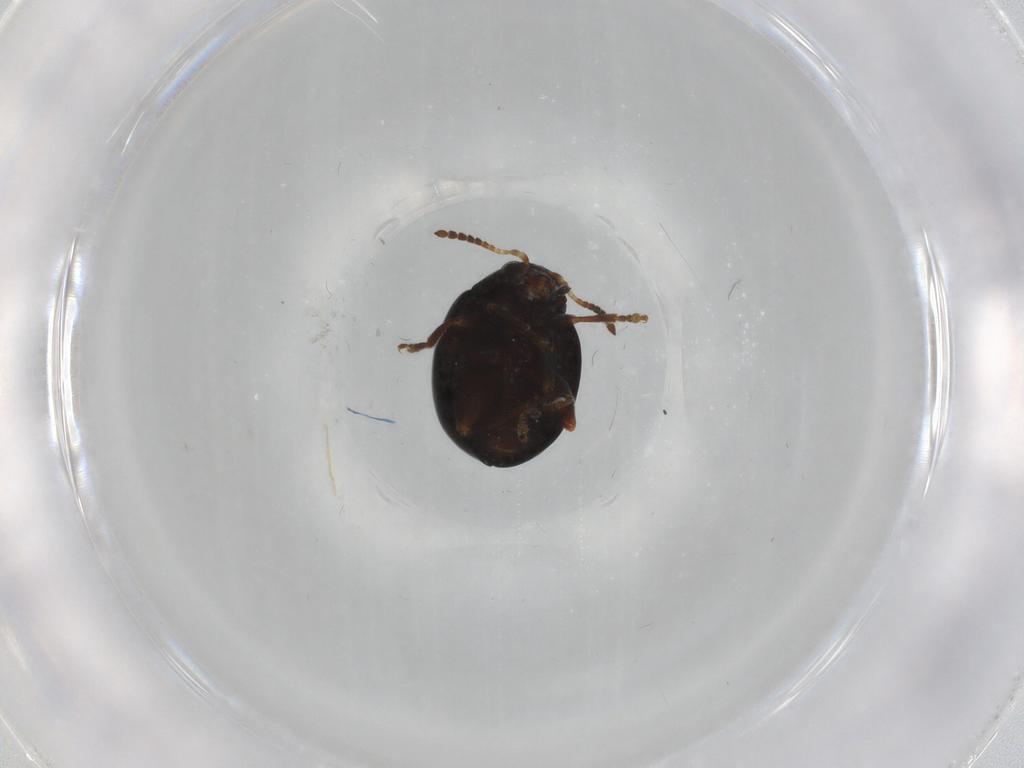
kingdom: Animalia
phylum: Arthropoda
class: Insecta
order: Coleoptera
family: Chrysomelidae
